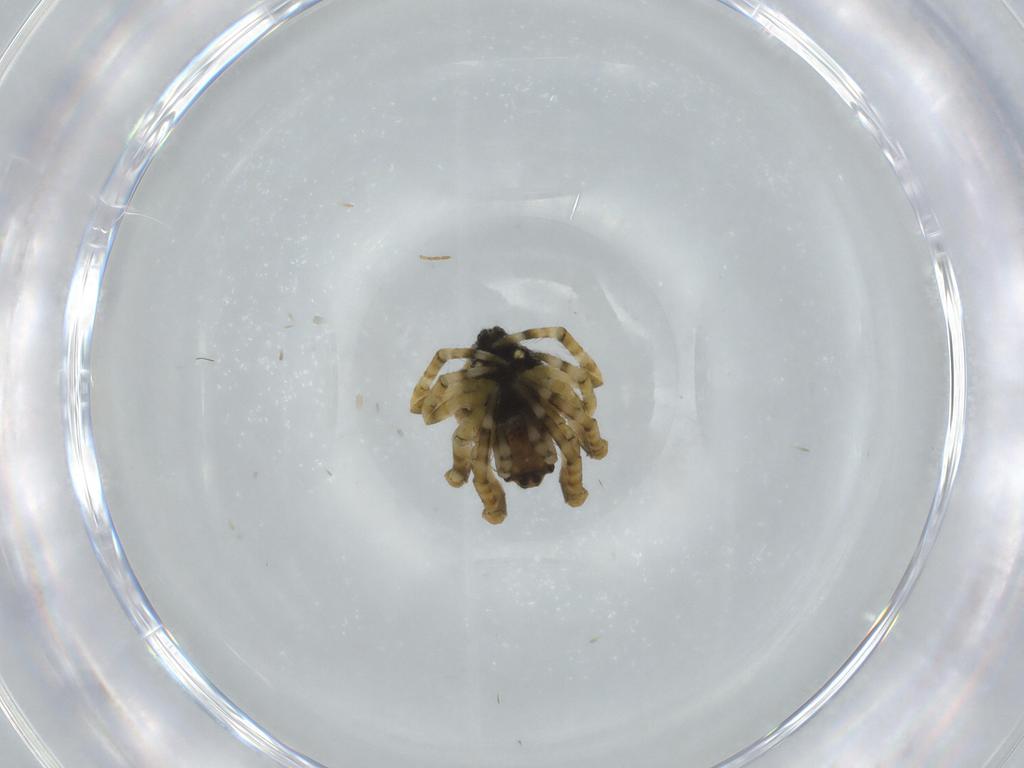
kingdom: Animalia
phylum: Arthropoda
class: Arachnida
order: Araneae
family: Araneidae
